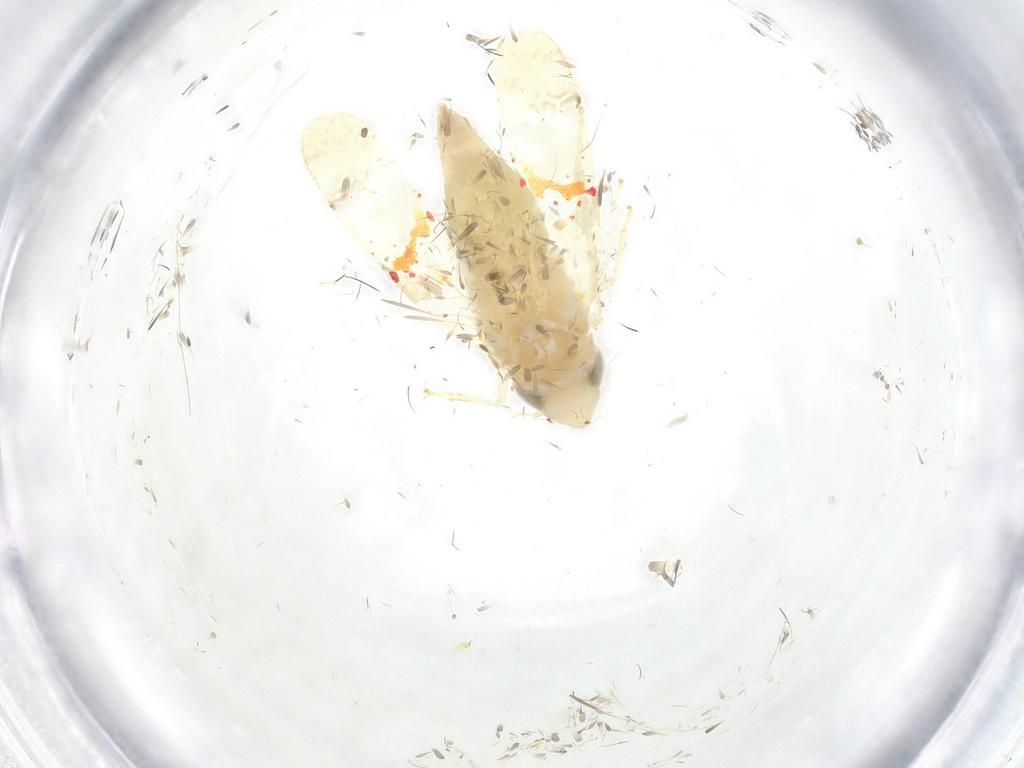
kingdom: Animalia
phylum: Arthropoda
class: Insecta
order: Hemiptera
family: Cicadellidae
